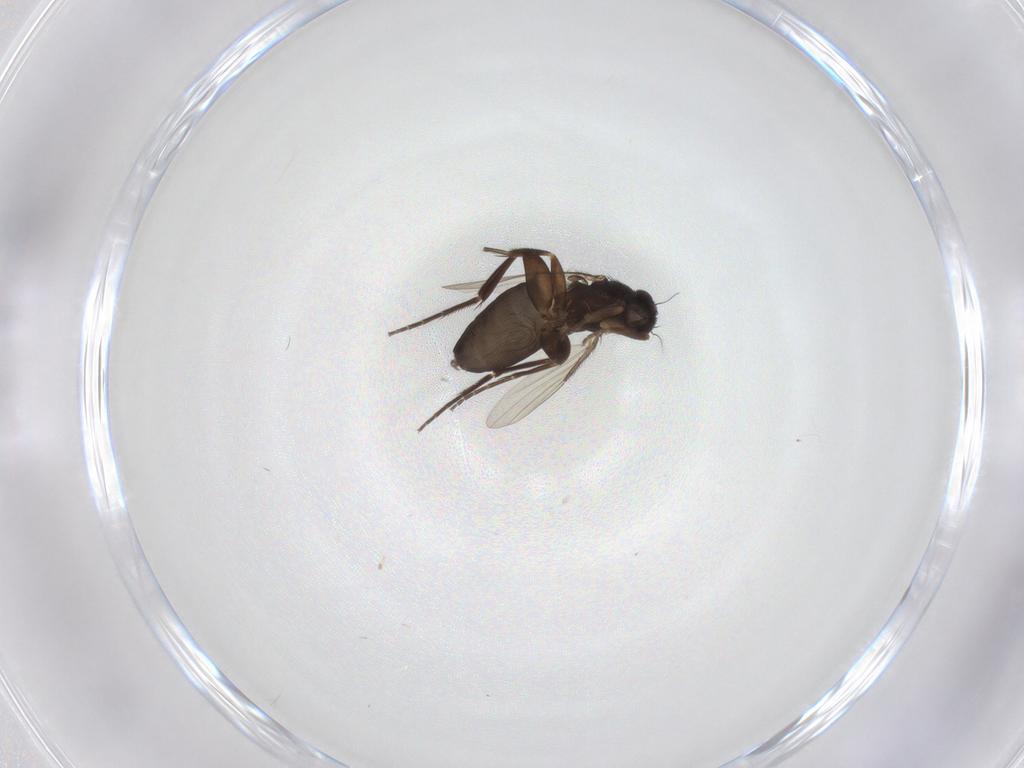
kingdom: Animalia
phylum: Arthropoda
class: Insecta
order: Diptera
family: Phoridae
